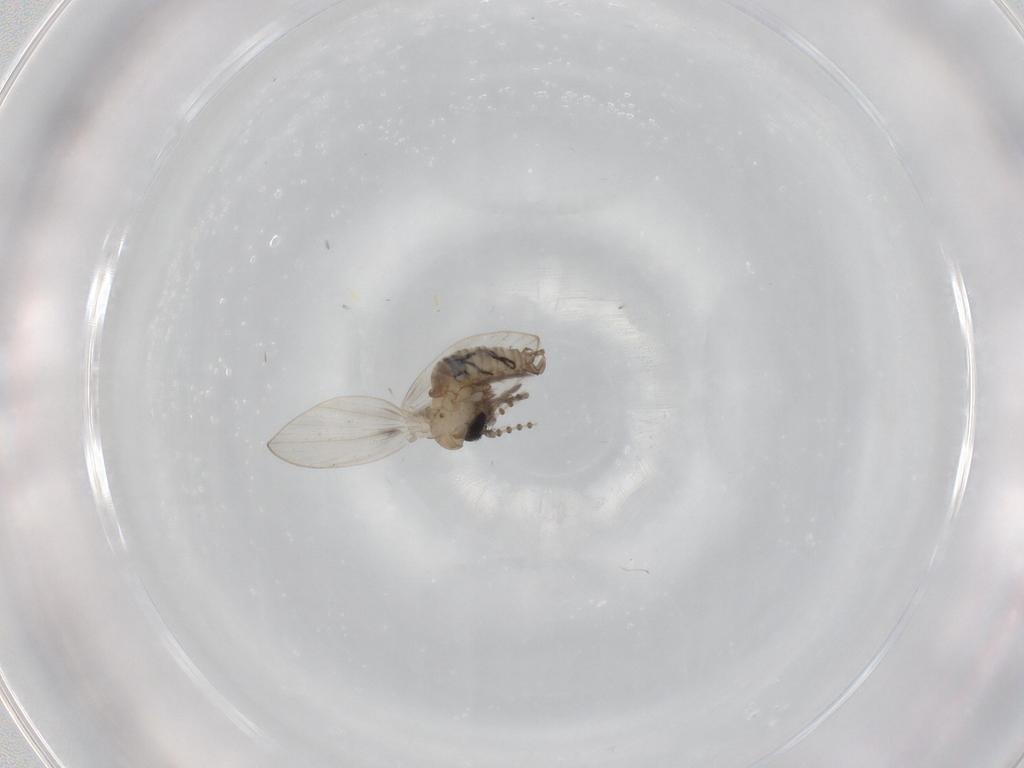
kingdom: Animalia
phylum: Arthropoda
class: Insecta
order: Diptera
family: Psychodidae
